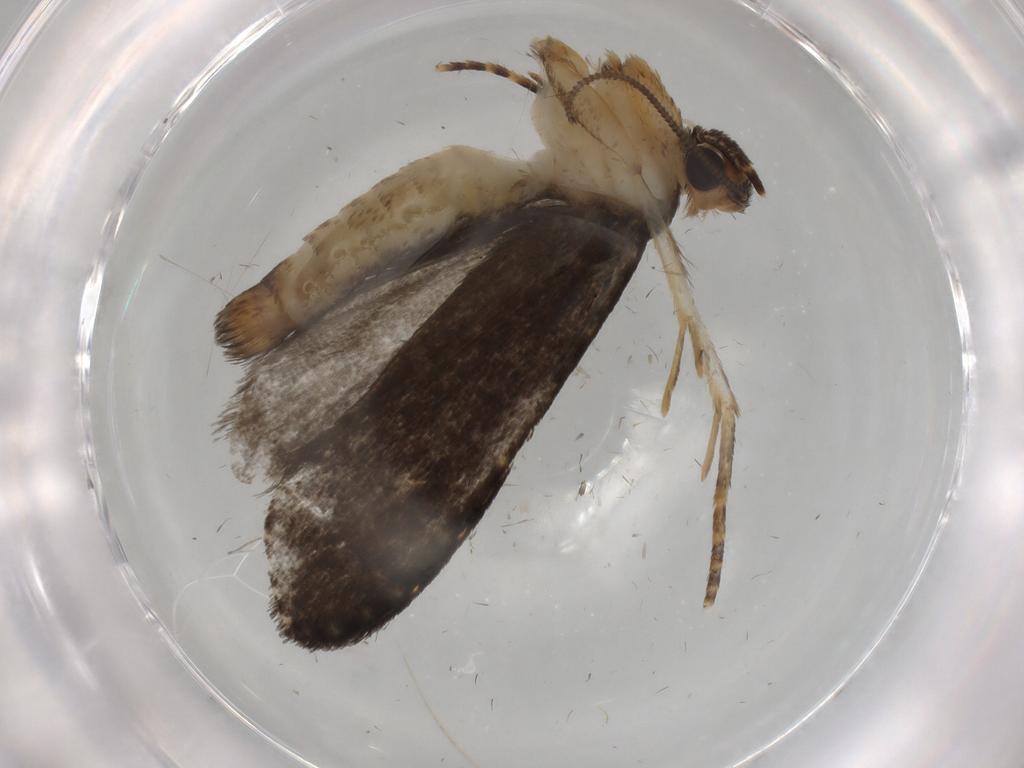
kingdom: Animalia
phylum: Arthropoda
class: Insecta
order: Lepidoptera
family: Tineidae
